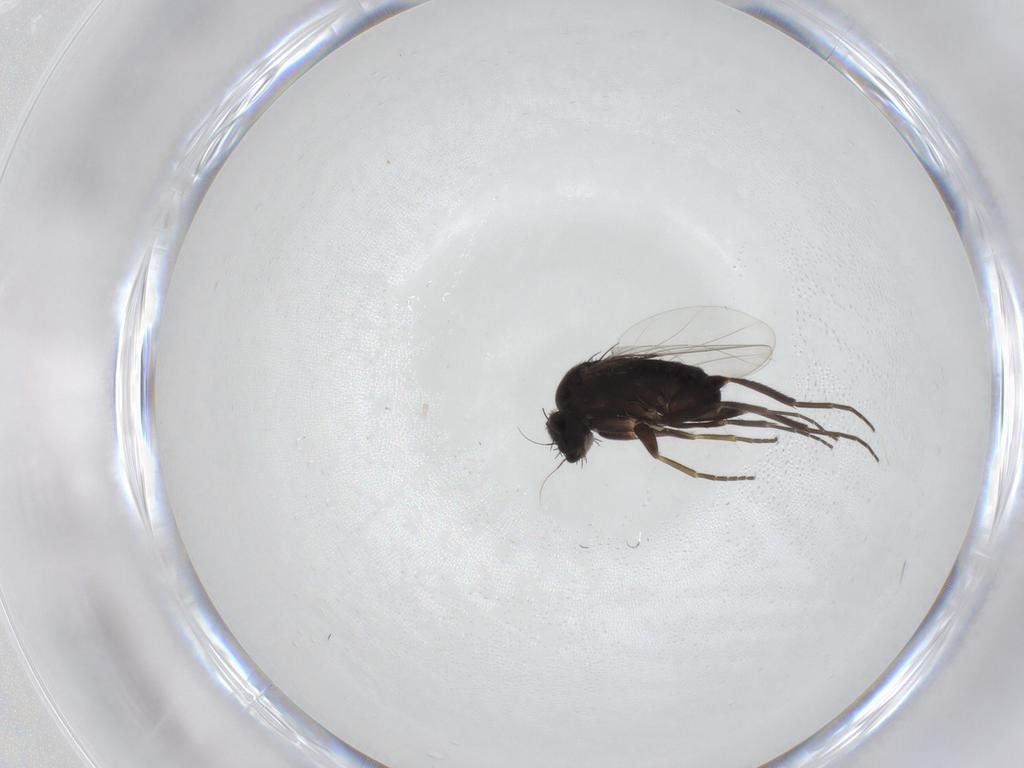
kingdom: Animalia
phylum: Arthropoda
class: Insecta
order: Diptera
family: Phoridae
